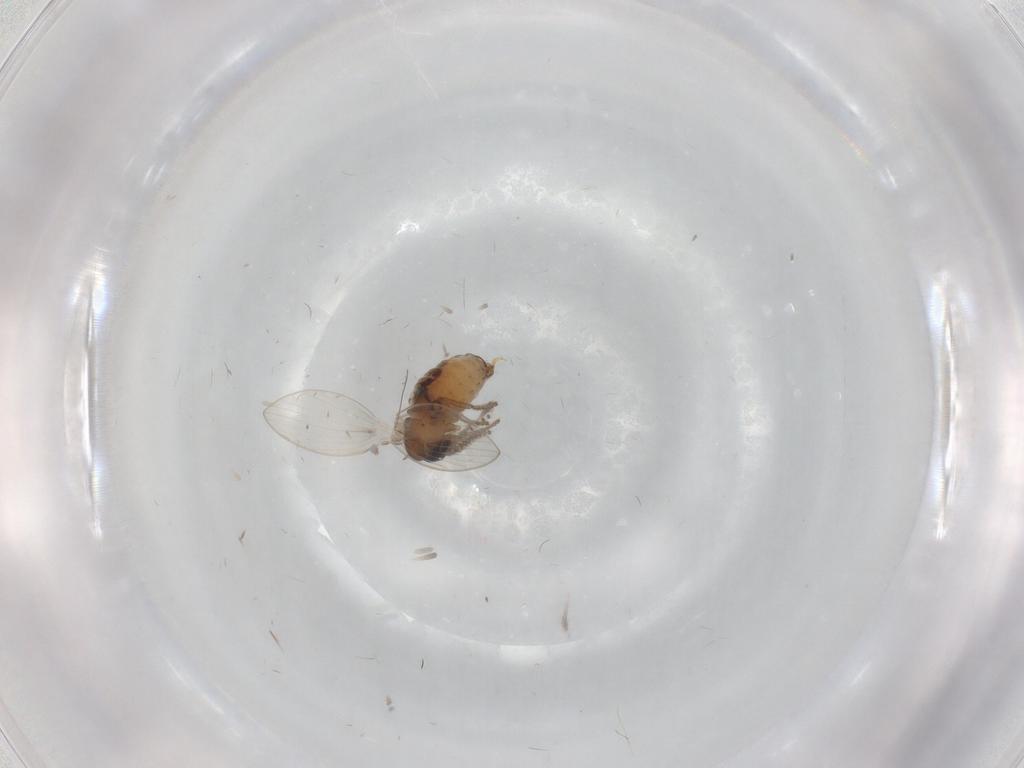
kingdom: Animalia
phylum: Arthropoda
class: Insecta
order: Diptera
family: Psychodidae
